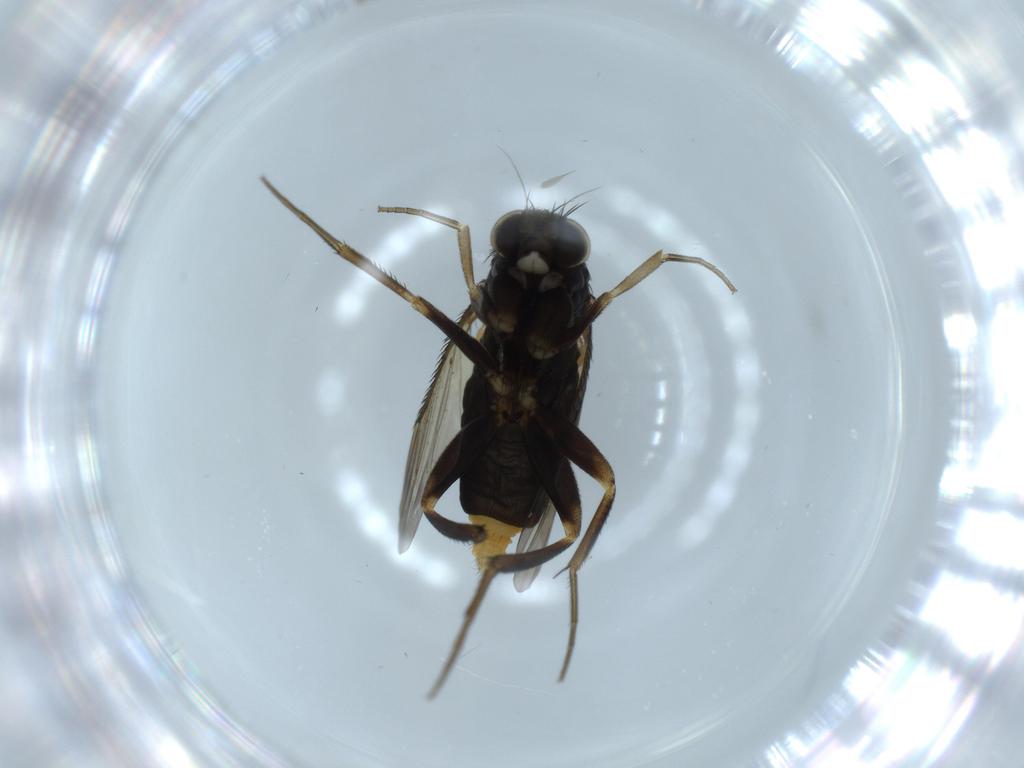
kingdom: Animalia
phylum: Arthropoda
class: Insecta
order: Diptera
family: Phoridae
